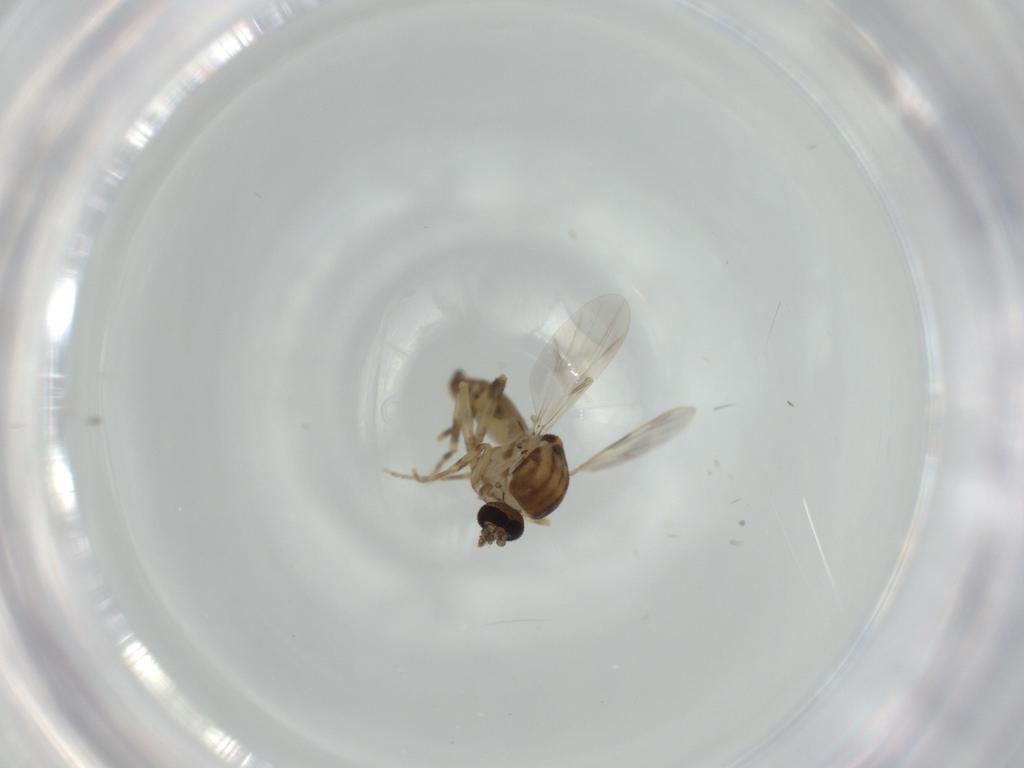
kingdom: Animalia
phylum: Arthropoda
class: Insecta
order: Diptera
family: Ceratopogonidae
